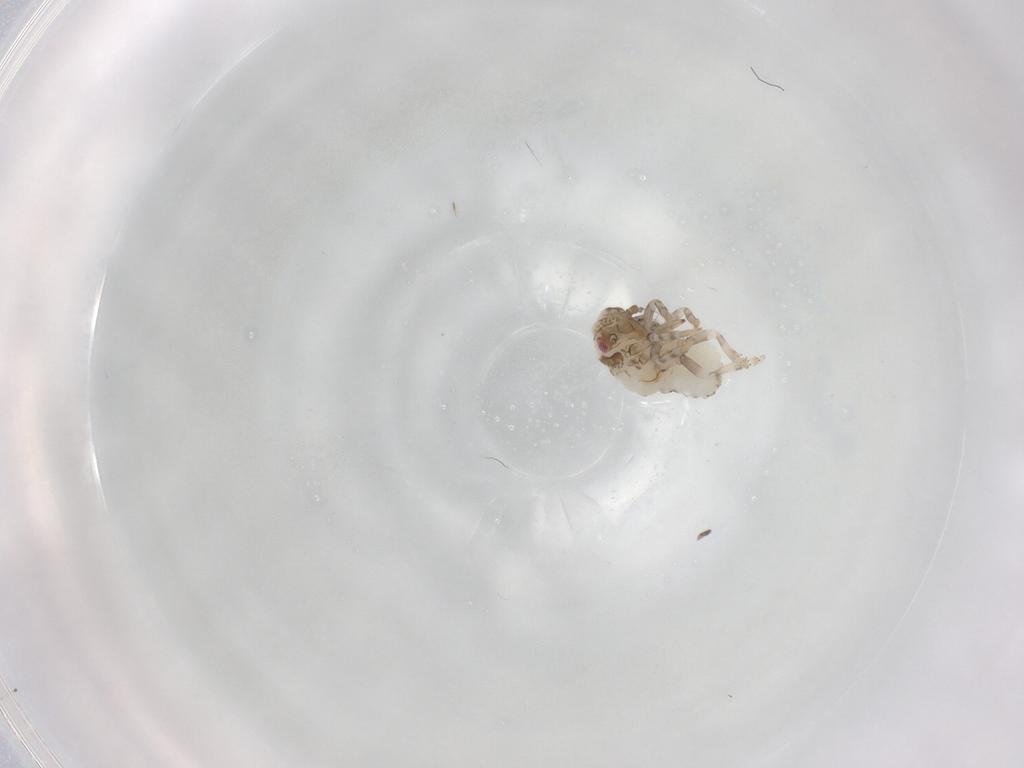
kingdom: Animalia
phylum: Arthropoda
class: Insecta
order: Hemiptera
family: Acanaloniidae
